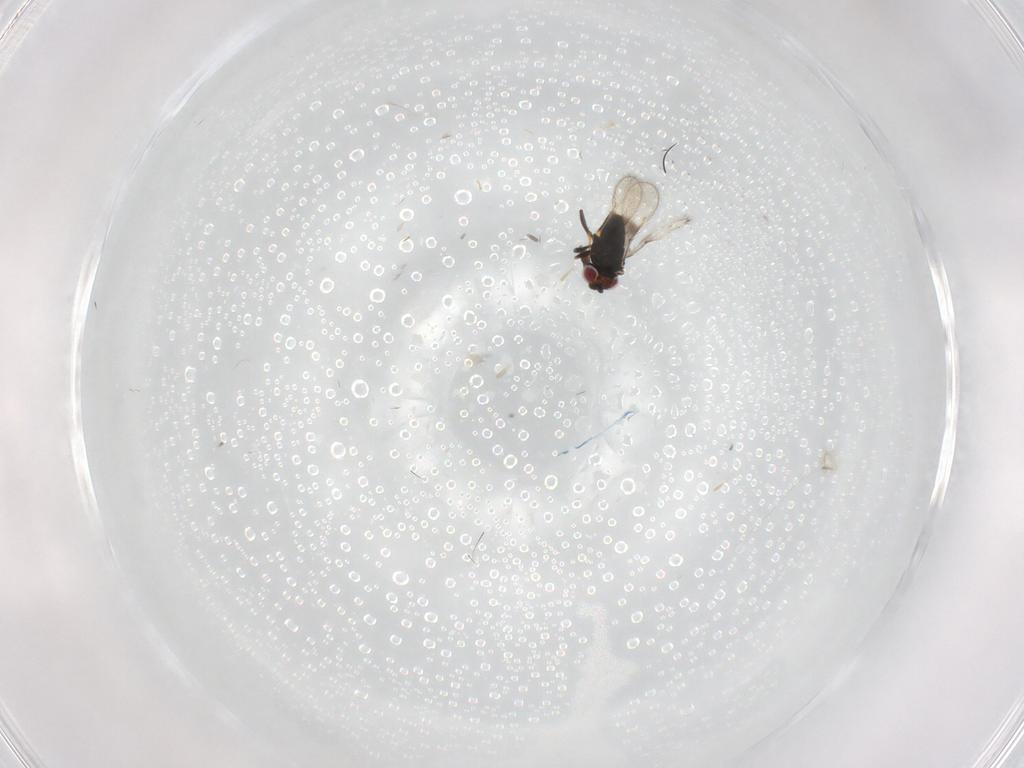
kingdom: Animalia
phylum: Arthropoda
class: Insecta
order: Hymenoptera
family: Azotidae
